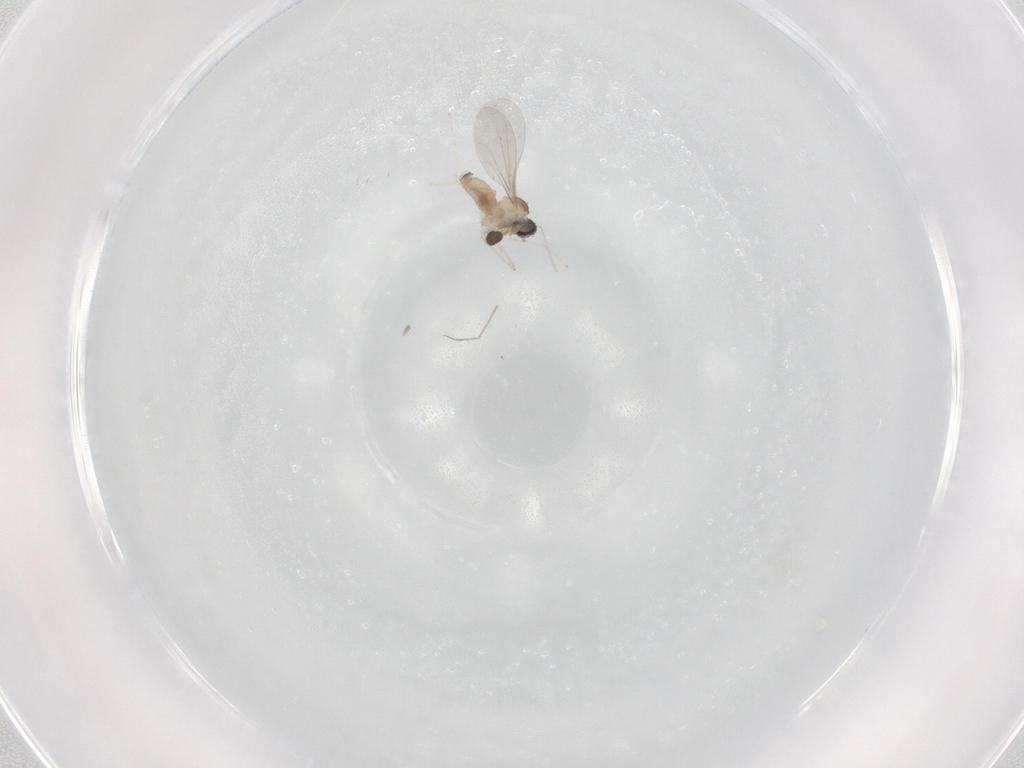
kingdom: Animalia
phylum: Arthropoda
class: Insecta
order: Diptera
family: Cecidomyiidae
